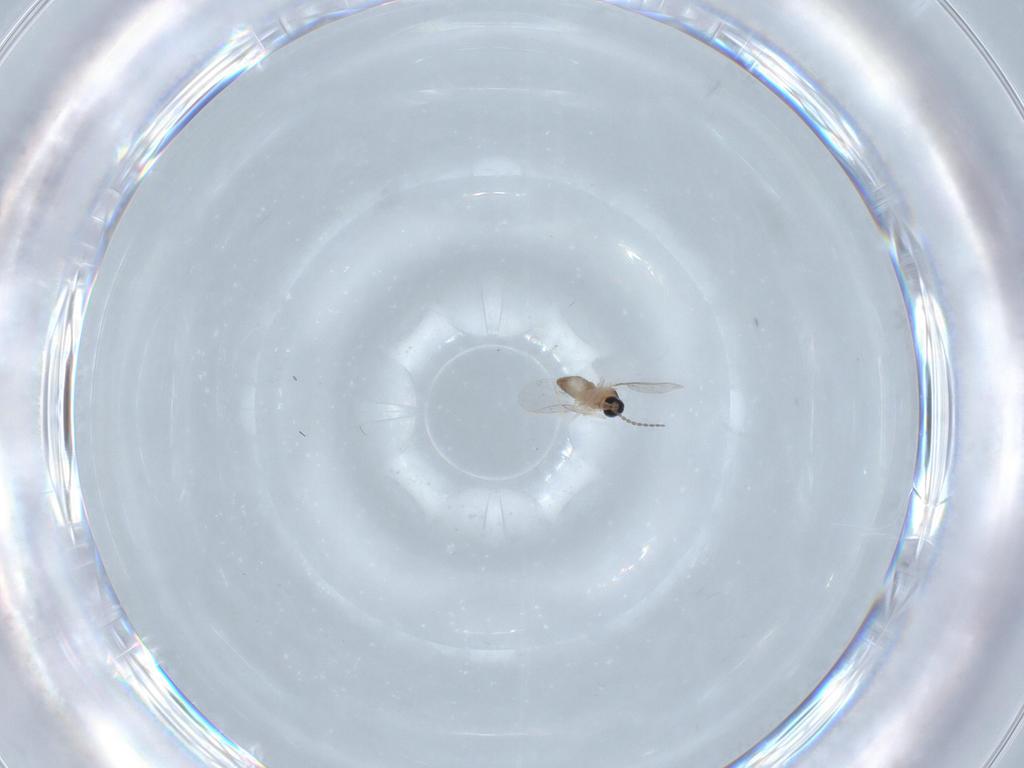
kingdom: Animalia
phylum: Arthropoda
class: Insecta
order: Diptera
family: Cecidomyiidae
